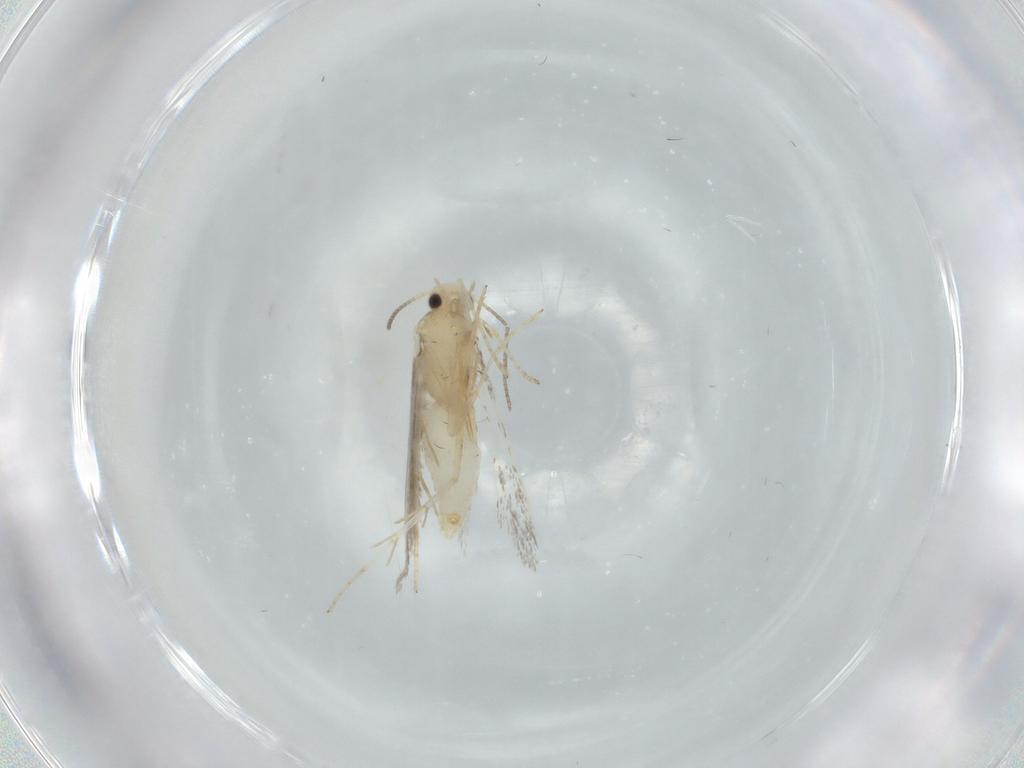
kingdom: Animalia
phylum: Arthropoda
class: Insecta
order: Lepidoptera
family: Schreckensteiniidae
